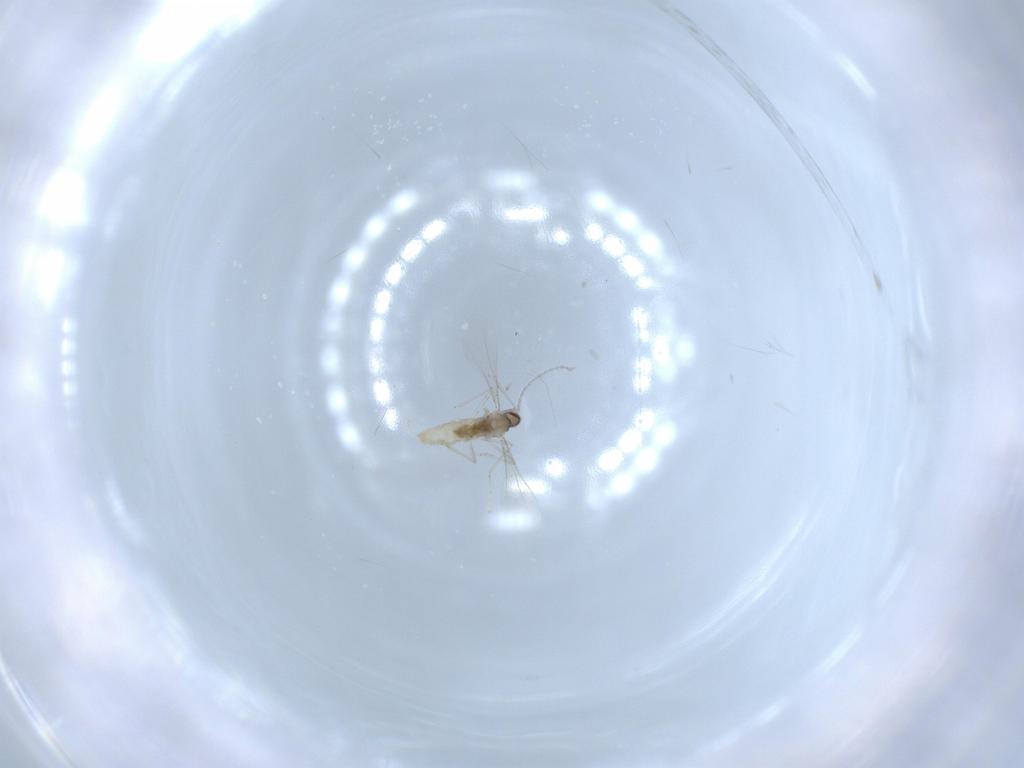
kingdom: Animalia
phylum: Arthropoda
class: Insecta
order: Diptera
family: Cecidomyiidae
